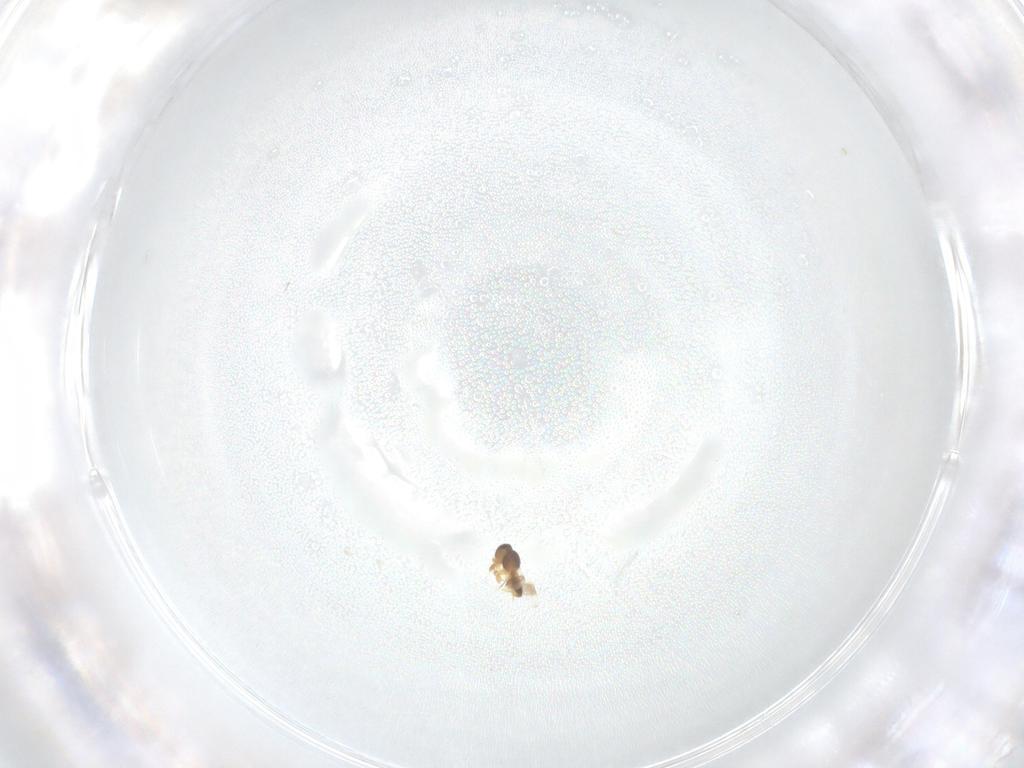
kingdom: Animalia
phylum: Arthropoda
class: Insecta
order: Hymenoptera
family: Platygastridae
